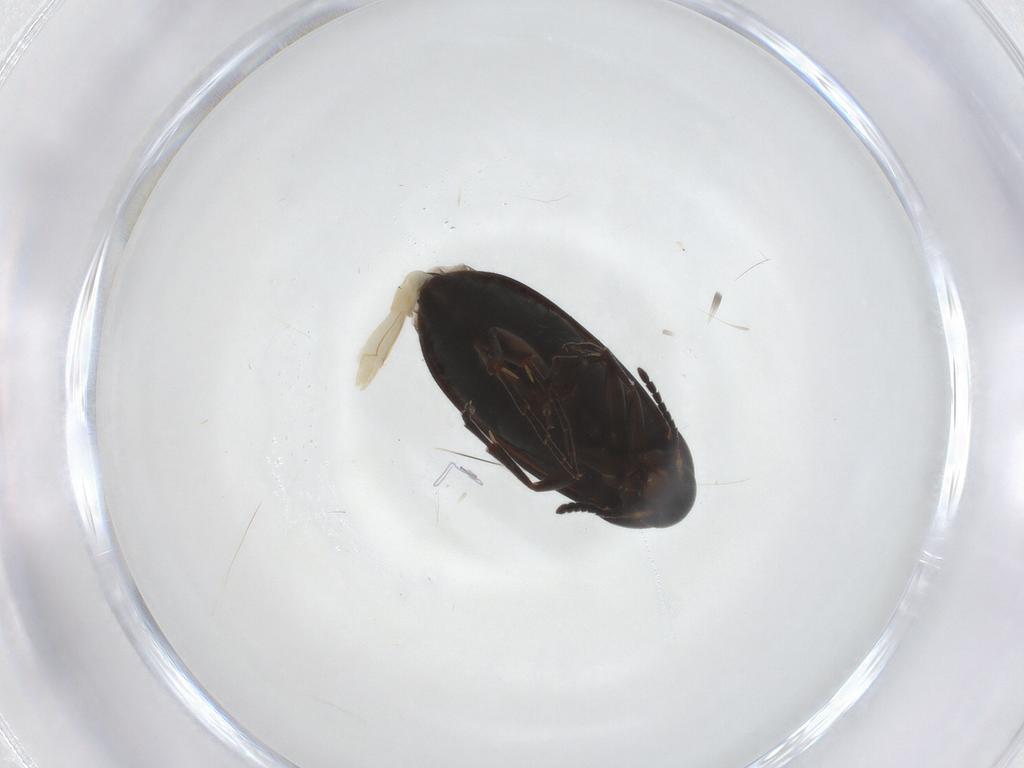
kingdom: Animalia
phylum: Arthropoda
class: Insecta
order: Coleoptera
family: Scraptiidae
